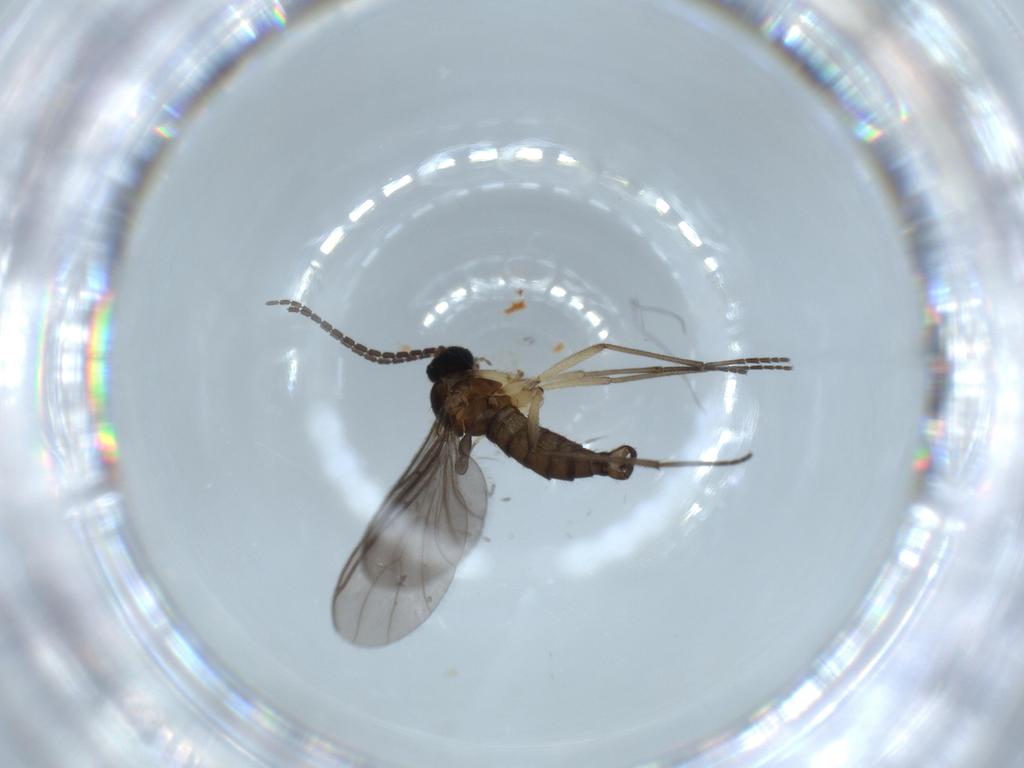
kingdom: Animalia
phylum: Arthropoda
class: Insecta
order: Diptera
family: Sciaridae
